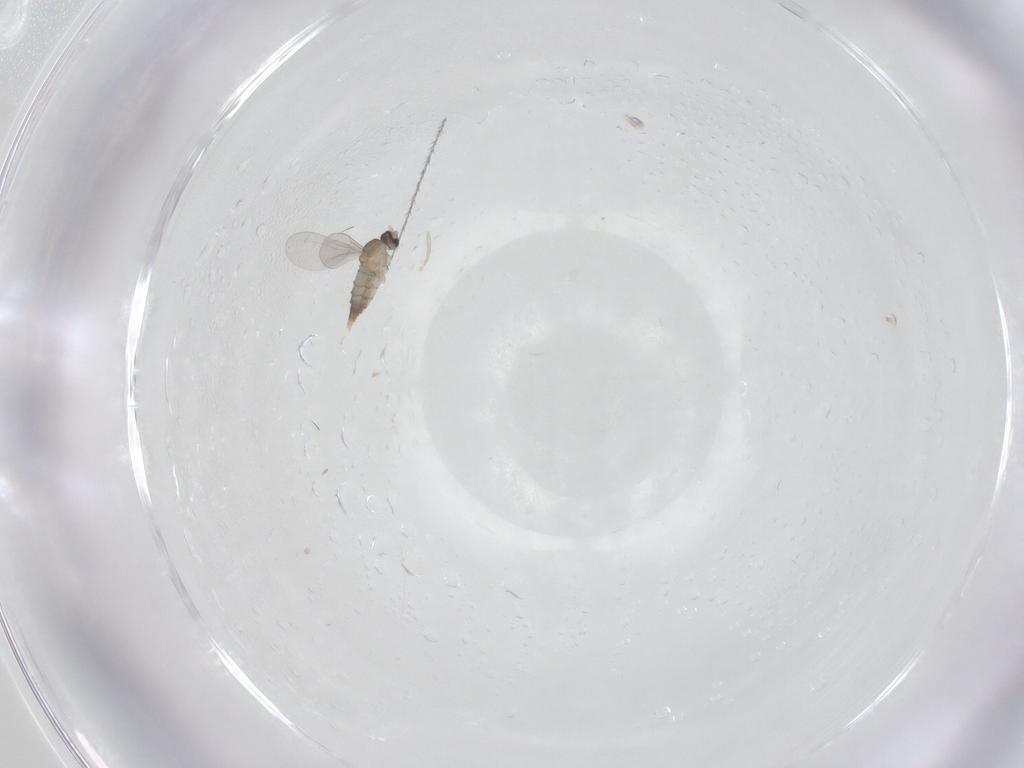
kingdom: Animalia
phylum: Arthropoda
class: Insecta
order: Diptera
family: Cecidomyiidae
